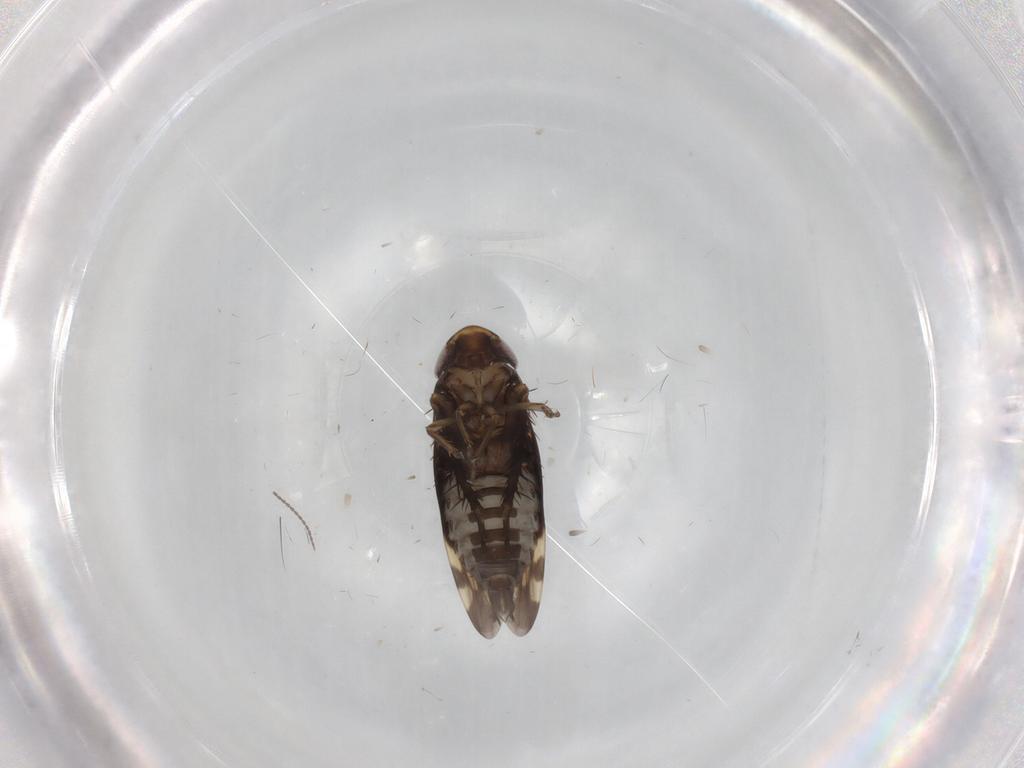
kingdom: Animalia
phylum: Arthropoda
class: Insecta
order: Hemiptera
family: Cicadellidae
